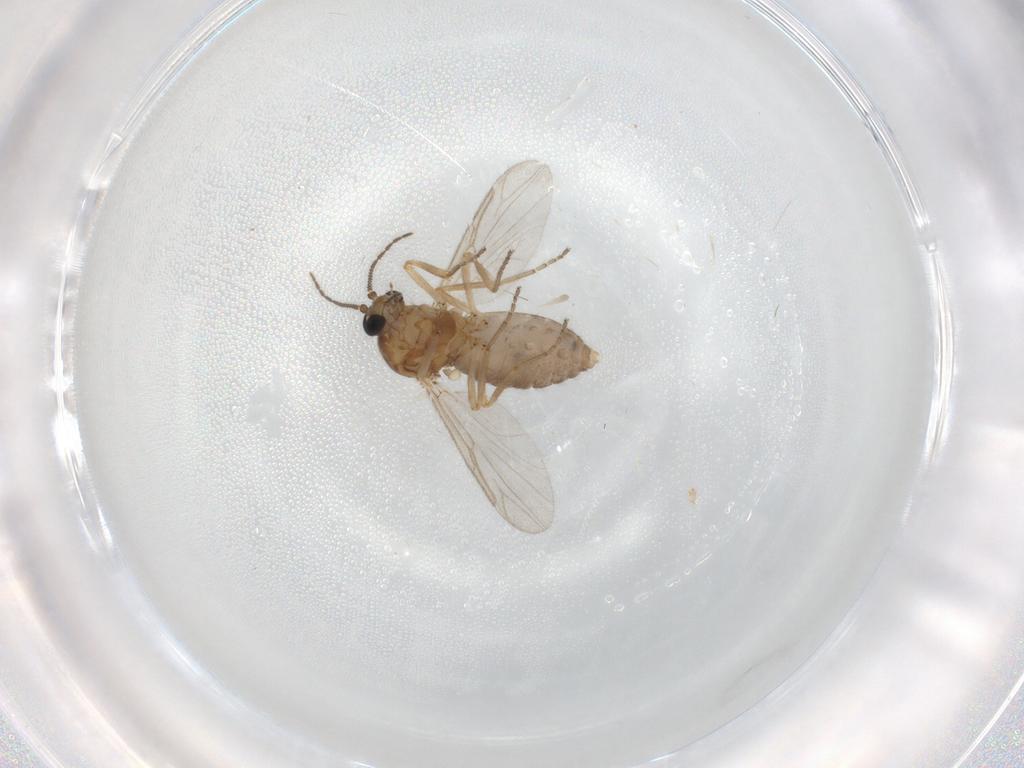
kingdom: Animalia
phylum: Arthropoda
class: Insecta
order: Diptera
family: Ceratopogonidae
